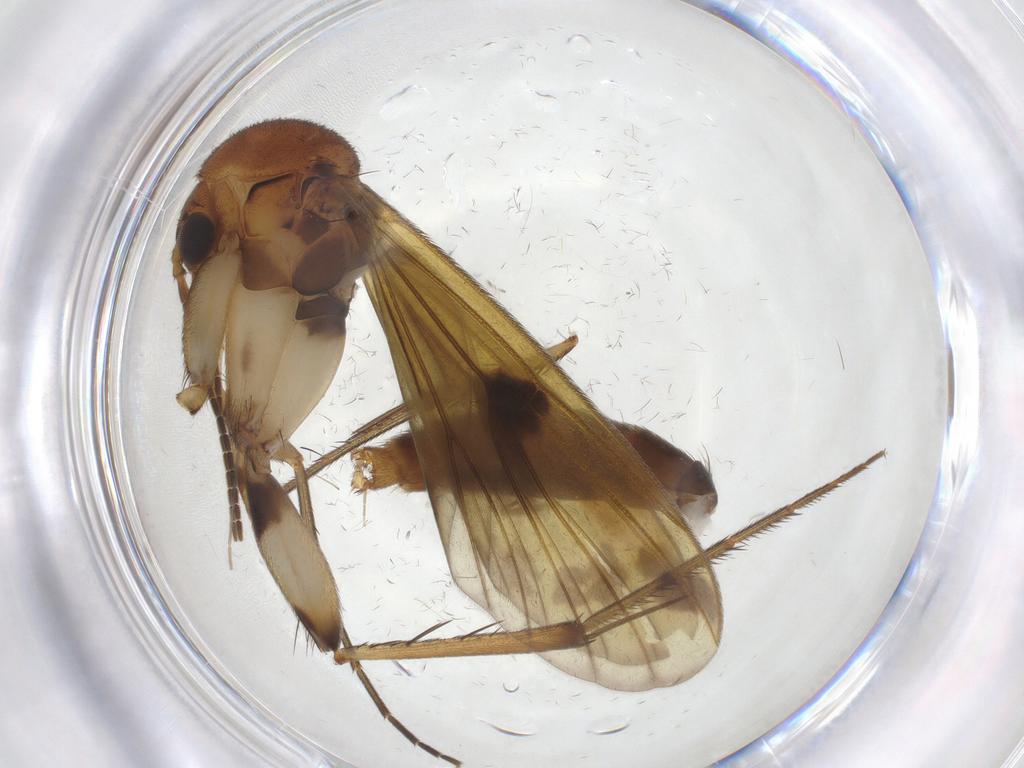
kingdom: Animalia
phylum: Arthropoda
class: Insecta
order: Diptera
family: Sciaridae
